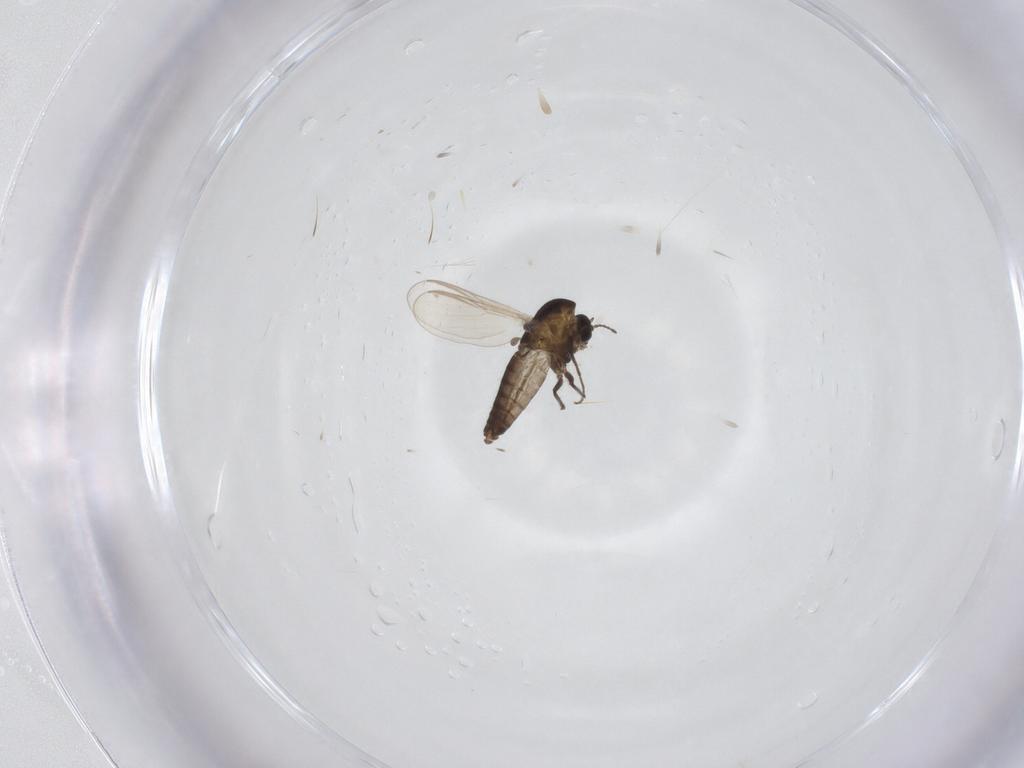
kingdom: Animalia
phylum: Arthropoda
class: Insecta
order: Diptera
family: Chironomidae
